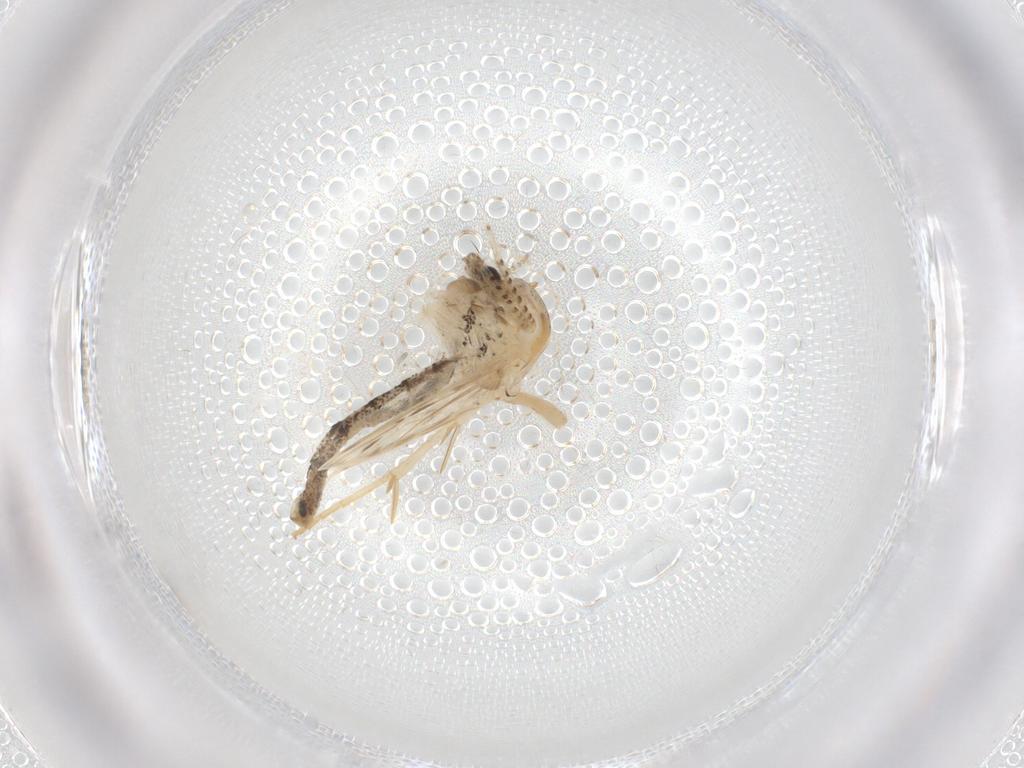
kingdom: Animalia
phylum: Arthropoda
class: Insecta
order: Diptera
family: Chaoboridae
